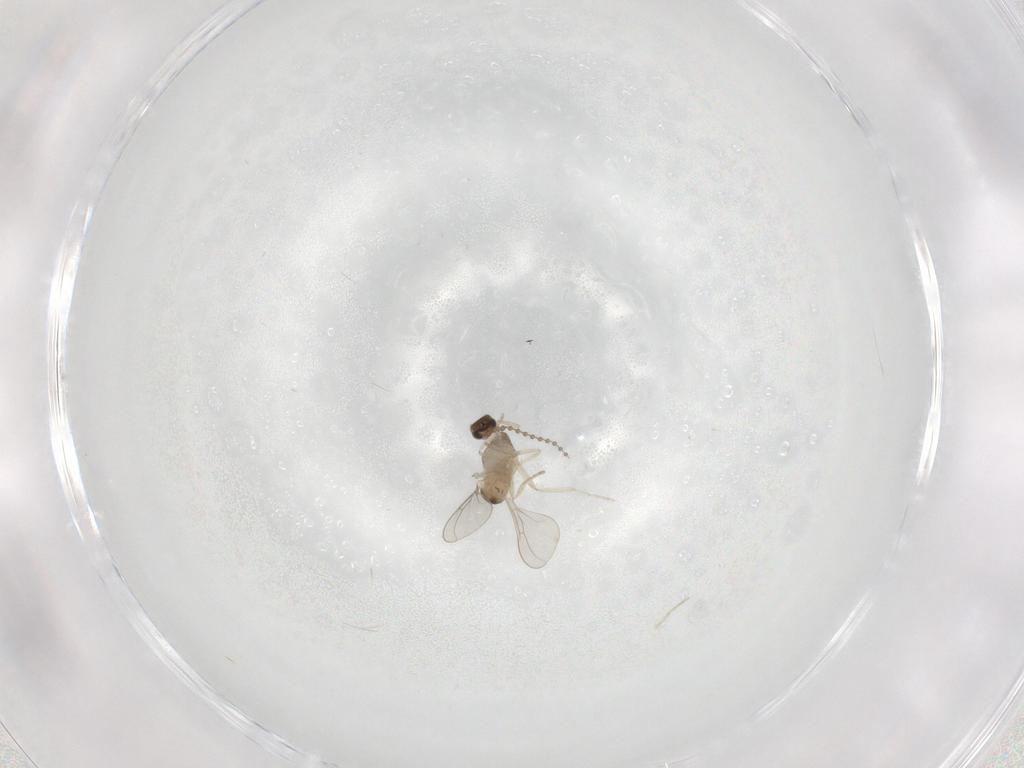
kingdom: Animalia
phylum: Arthropoda
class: Insecta
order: Diptera
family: Cecidomyiidae
